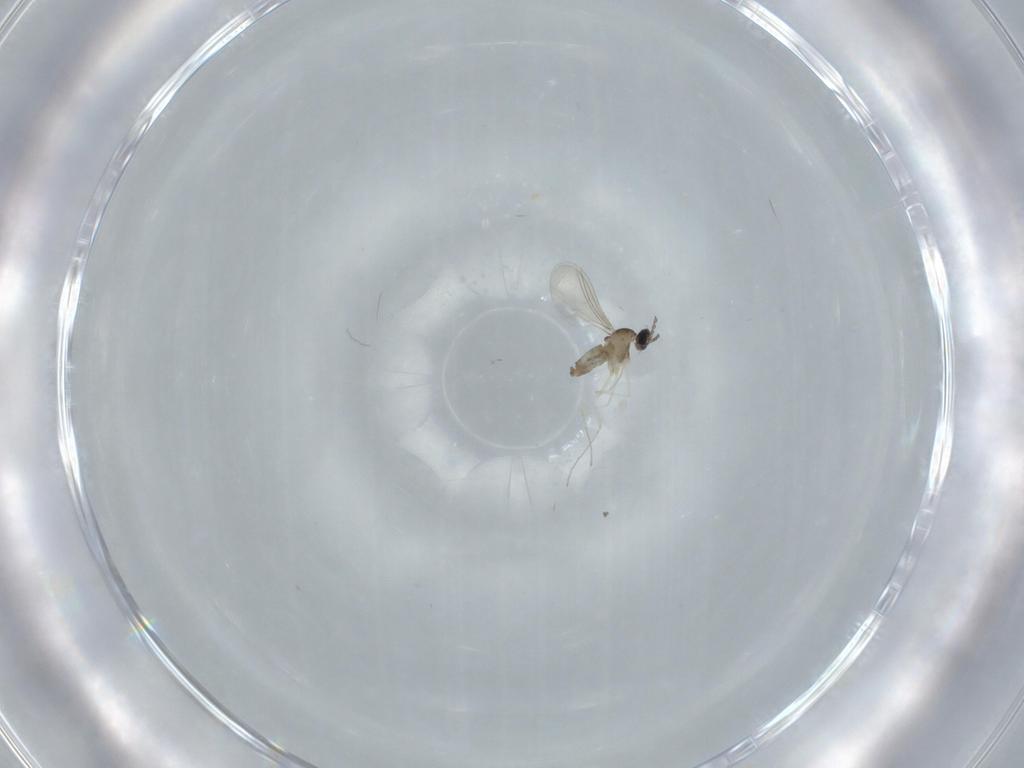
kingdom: Animalia
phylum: Arthropoda
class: Insecta
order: Diptera
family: Cecidomyiidae
